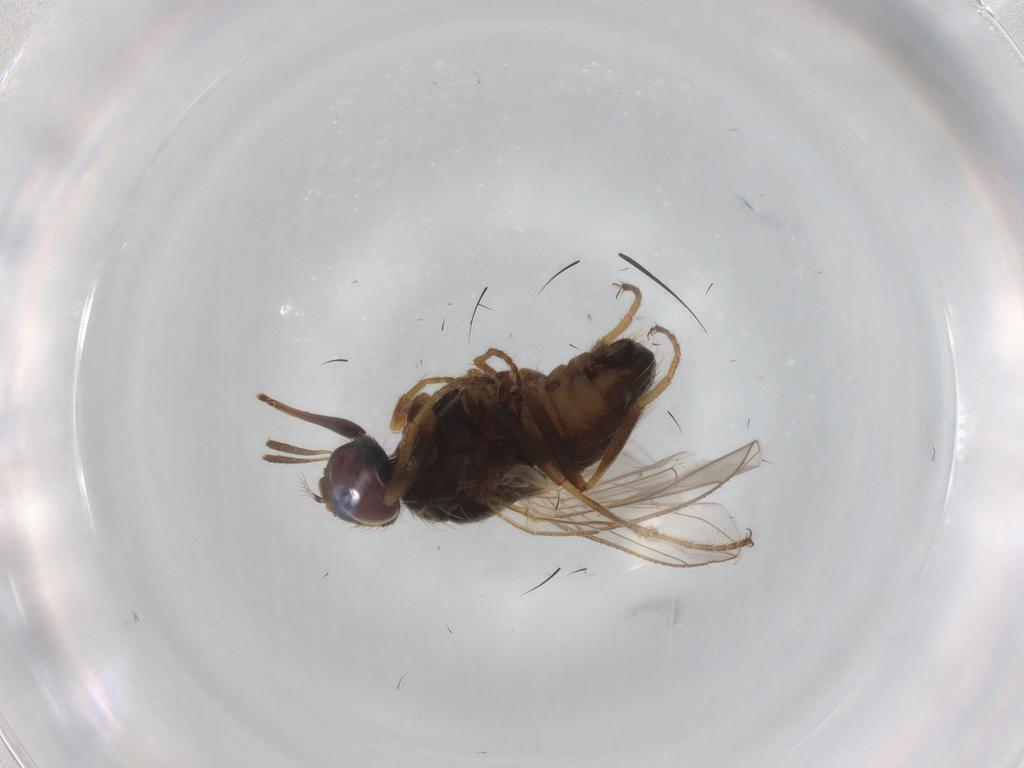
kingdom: Animalia
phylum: Arthropoda
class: Insecta
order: Diptera
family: Muscidae
